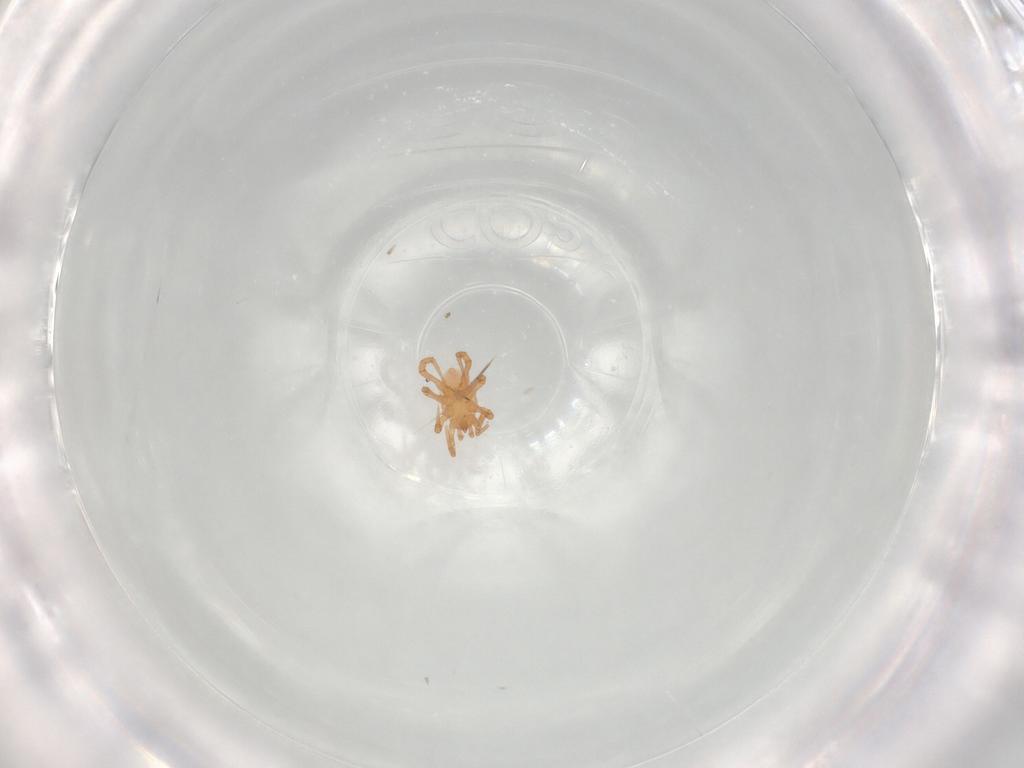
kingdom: Animalia
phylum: Arthropoda
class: Arachnida
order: Mesostigmata
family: Parasitidae
